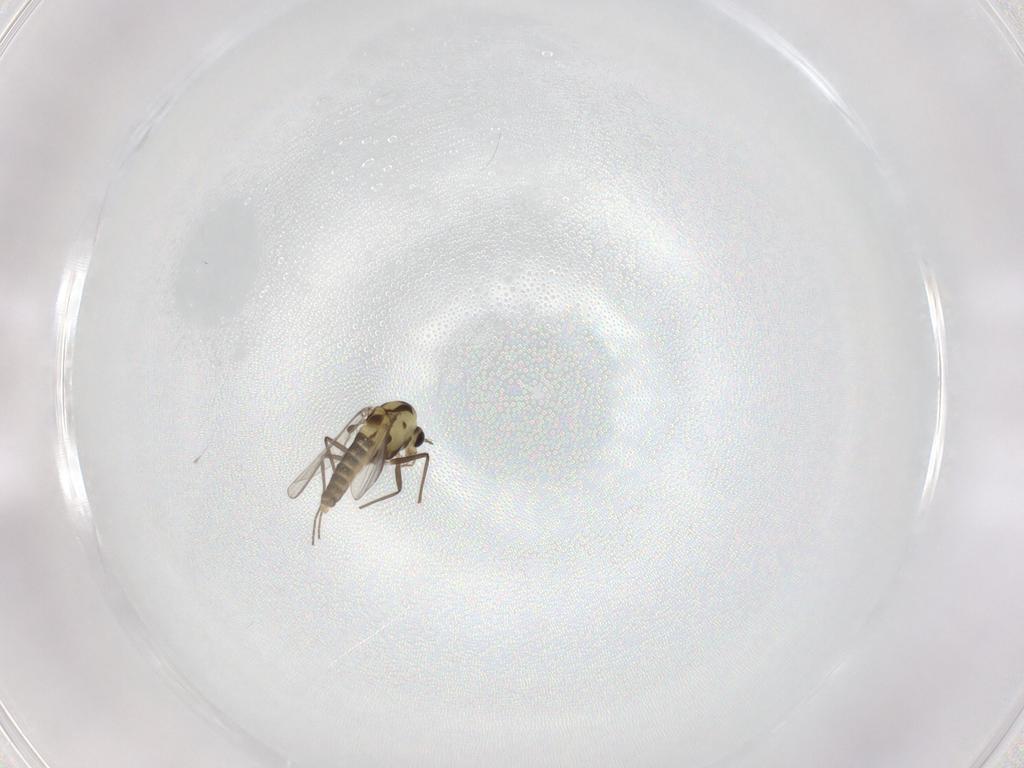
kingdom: Animalia
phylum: Arthropoda
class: Insecta
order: Diptera
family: Chironomidae
